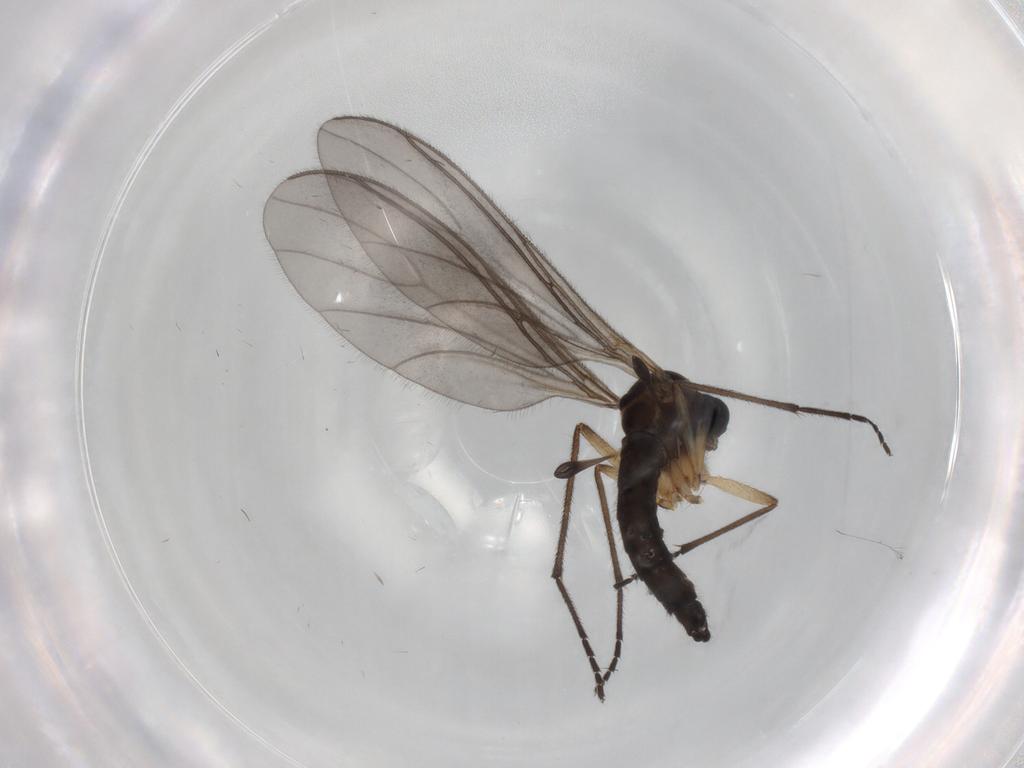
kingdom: Animalia
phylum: Arthropoda
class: Insecta
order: Diptera
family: Sciaridae
